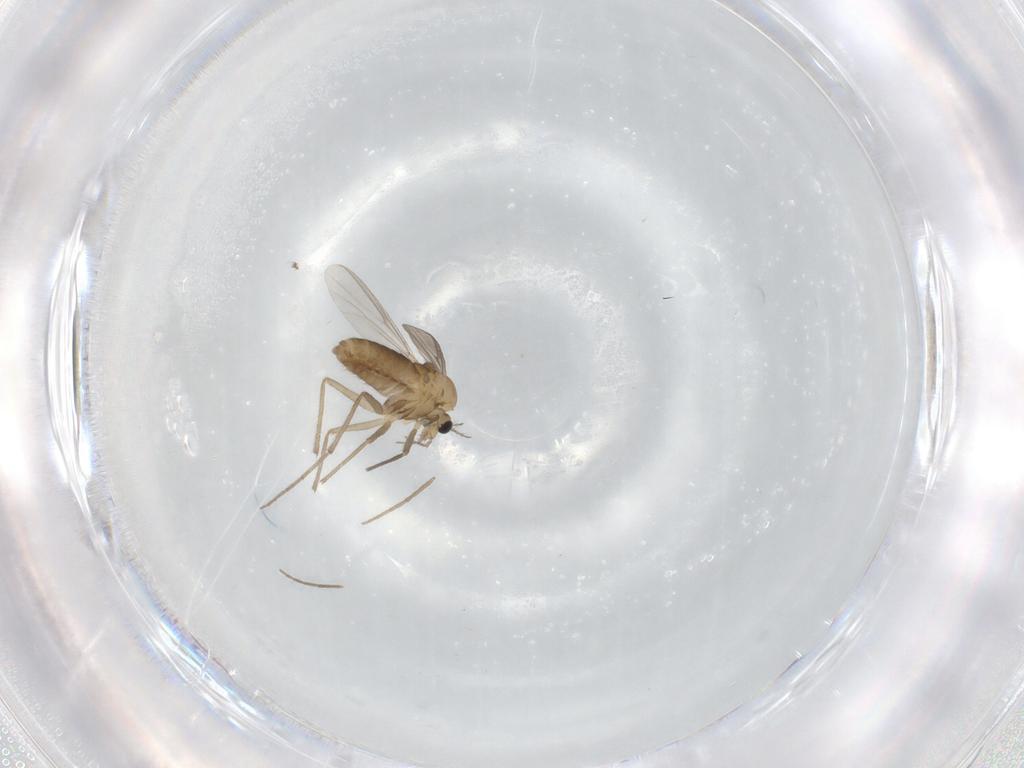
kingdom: Animalia
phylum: Arthropoda
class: Insecta
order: Diptera
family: Chironomidae
